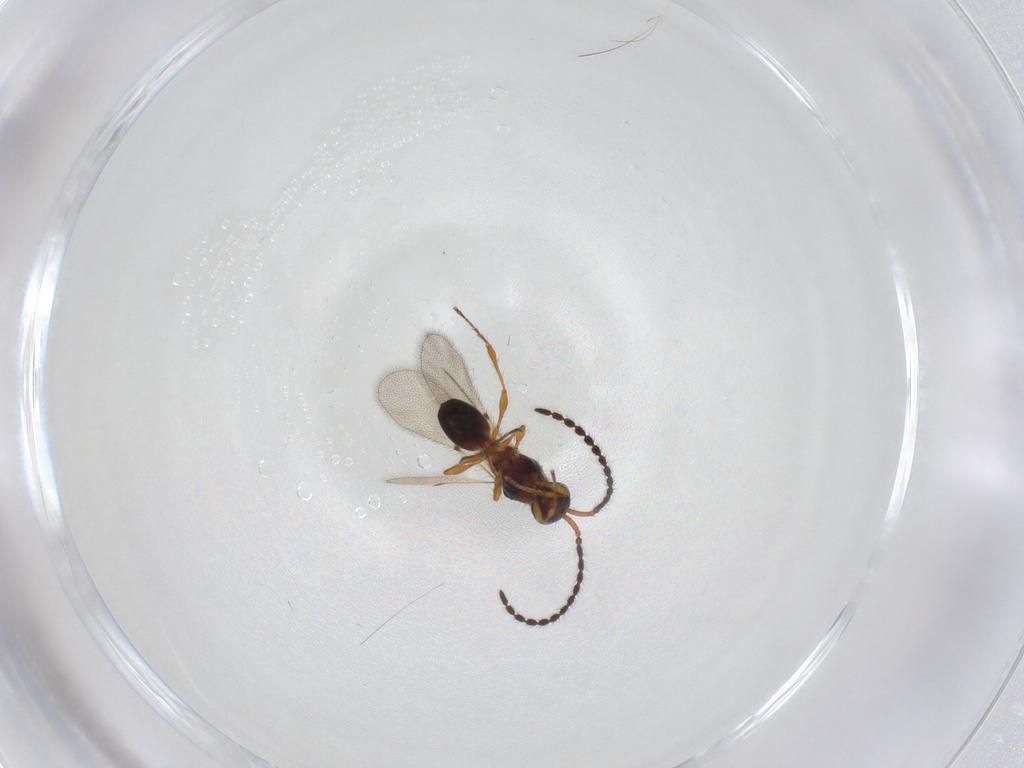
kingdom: Animalia
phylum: Arthropoda
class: Insecta
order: Hymenoptera
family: Diapriidae
